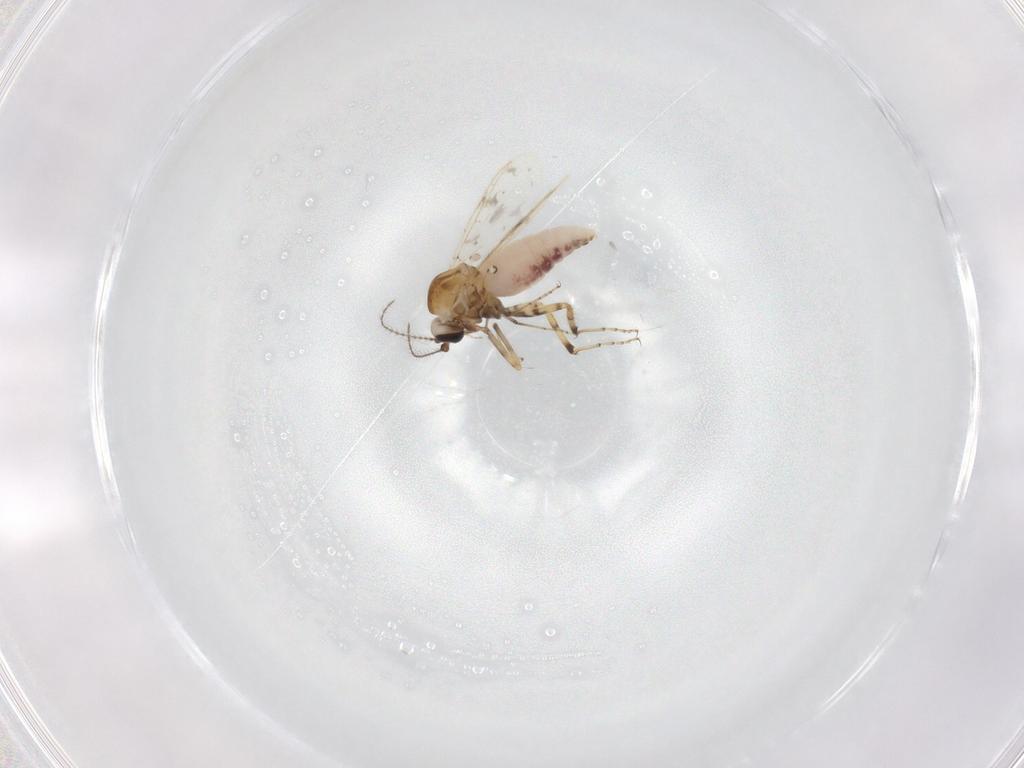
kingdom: Animalia
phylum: Arthropoda
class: Insecta
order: Diptera
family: Ceratopogonidae
